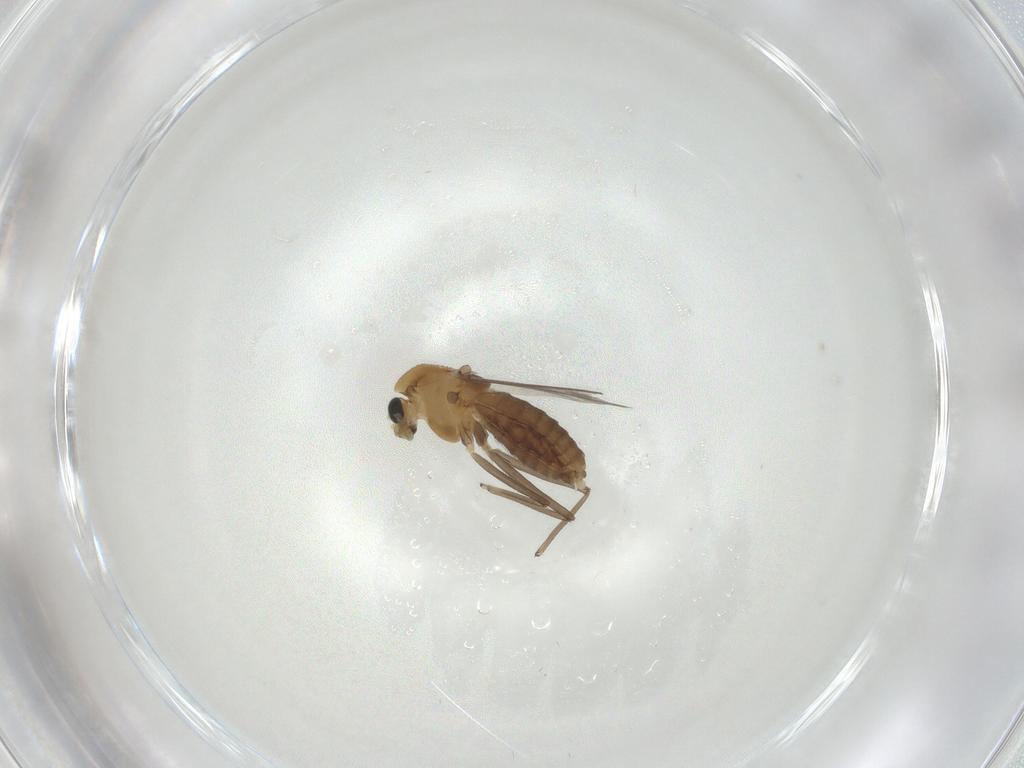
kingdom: Animalia
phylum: Arthropoda
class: Insecta
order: Diptera
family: Chironomidae
